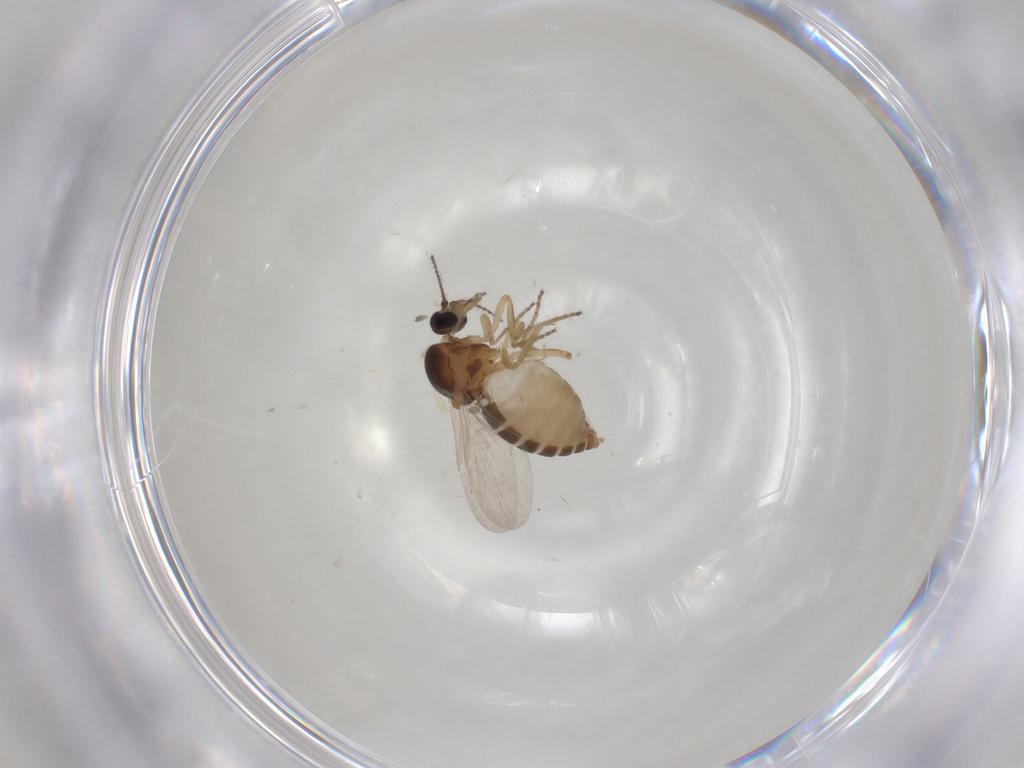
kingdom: Animalia
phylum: Arthropoda
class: Insecta
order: Diptera
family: Ceratopogonidae
